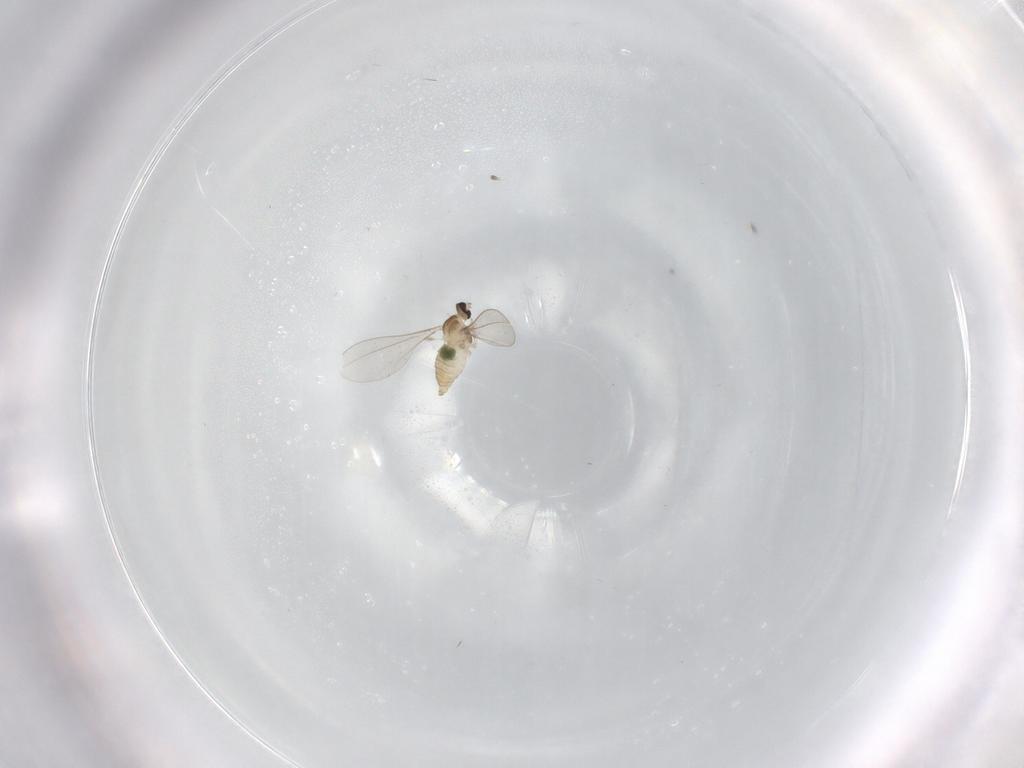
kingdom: Animalia
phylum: Arthropoda
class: Insecta
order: Diptera
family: Cecidomyiidae
